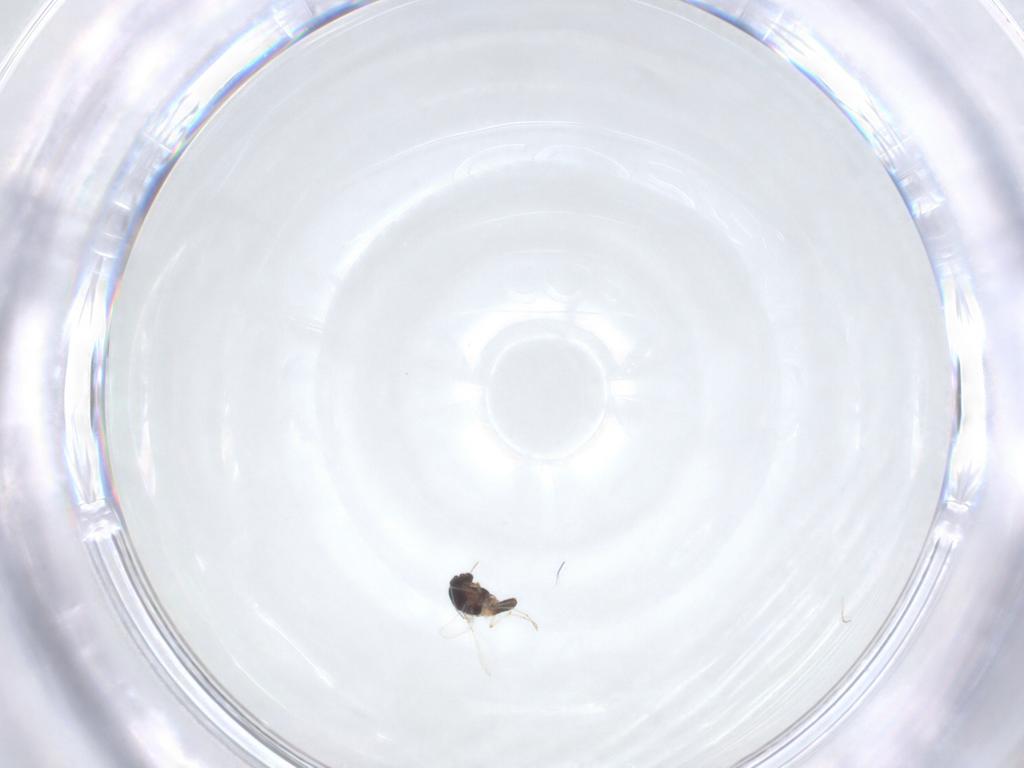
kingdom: Animalia
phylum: Arthropoda
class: Insecta
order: Diptera
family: Chironomidae
